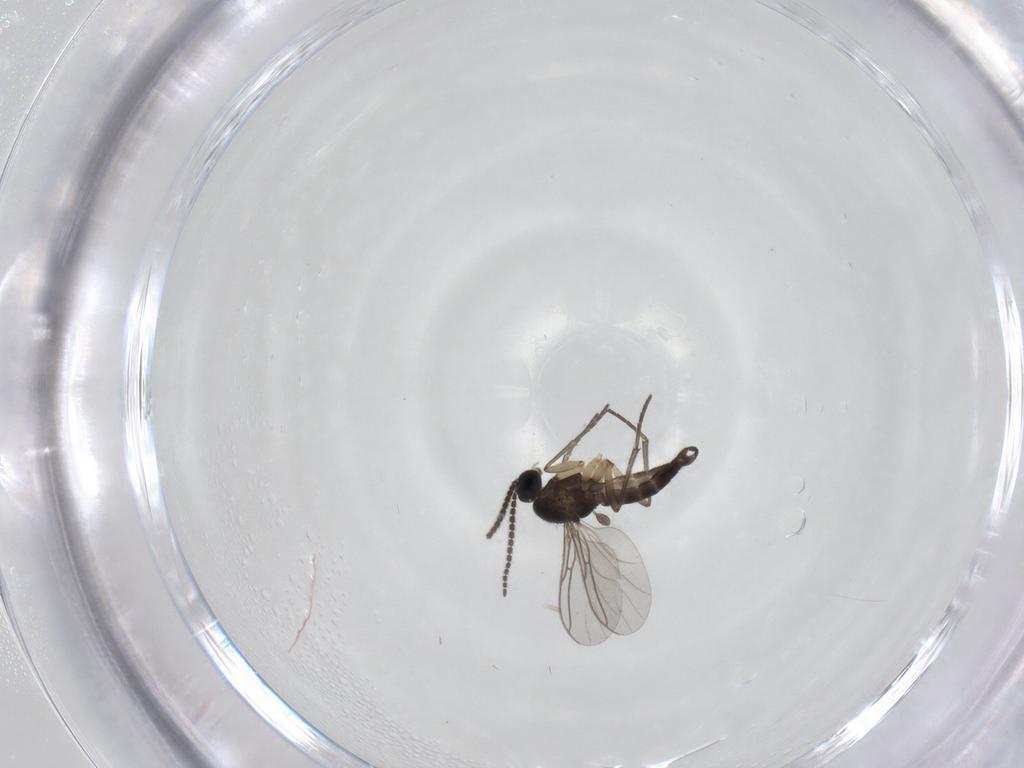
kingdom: Animalia
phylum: Arthropoda
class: Insecta
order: Diptera
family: Sciaridae
